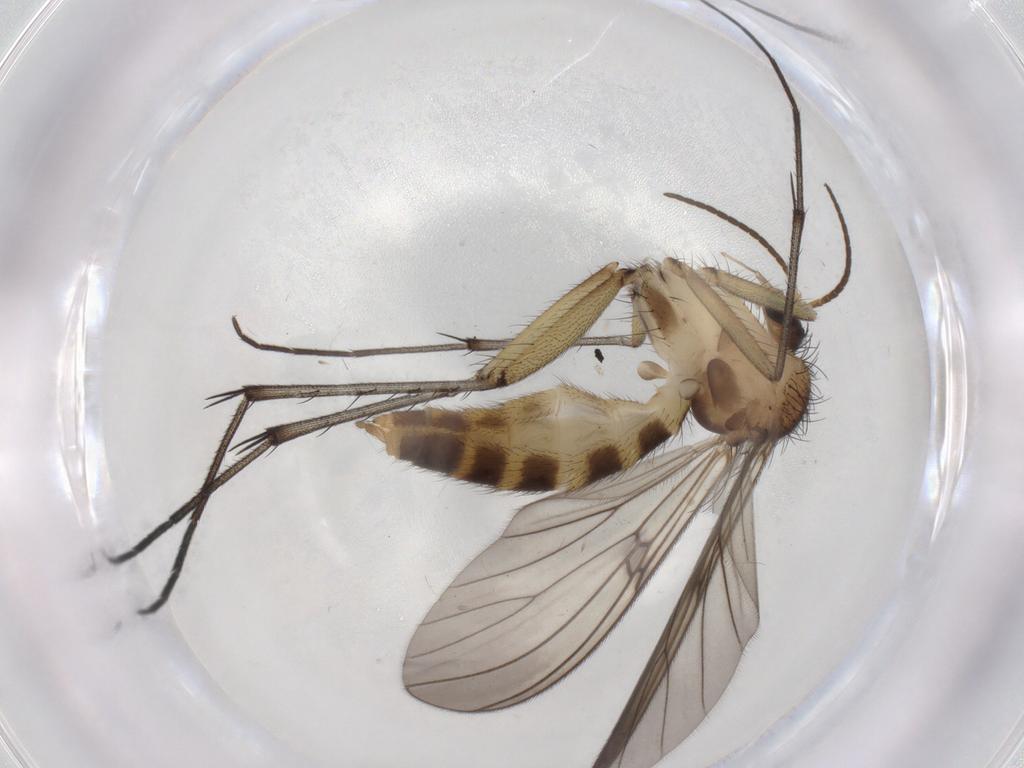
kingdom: Animalia
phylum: Arthropoda
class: Insecta
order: Diptera
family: Mycetophilidae
